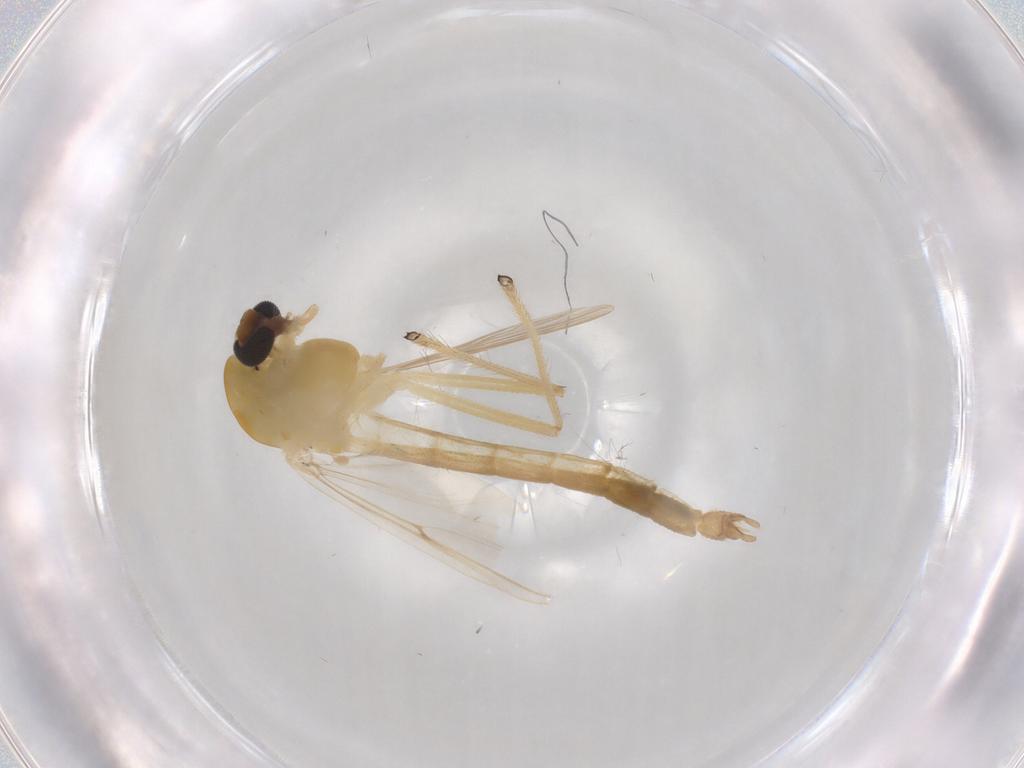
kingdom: Animalia
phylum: Arthropoda
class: Insecta
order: Diptera
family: Chironomidae
